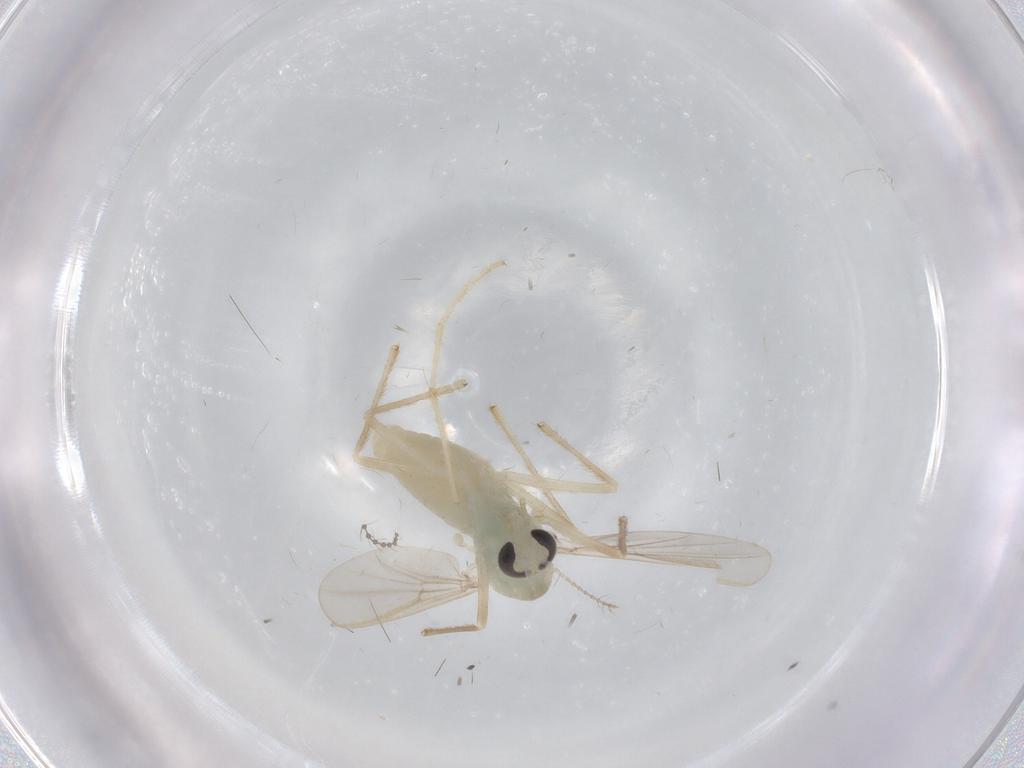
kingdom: Animalia
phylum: Arthropoda
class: Insecta
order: Diptera
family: Chironomidae
